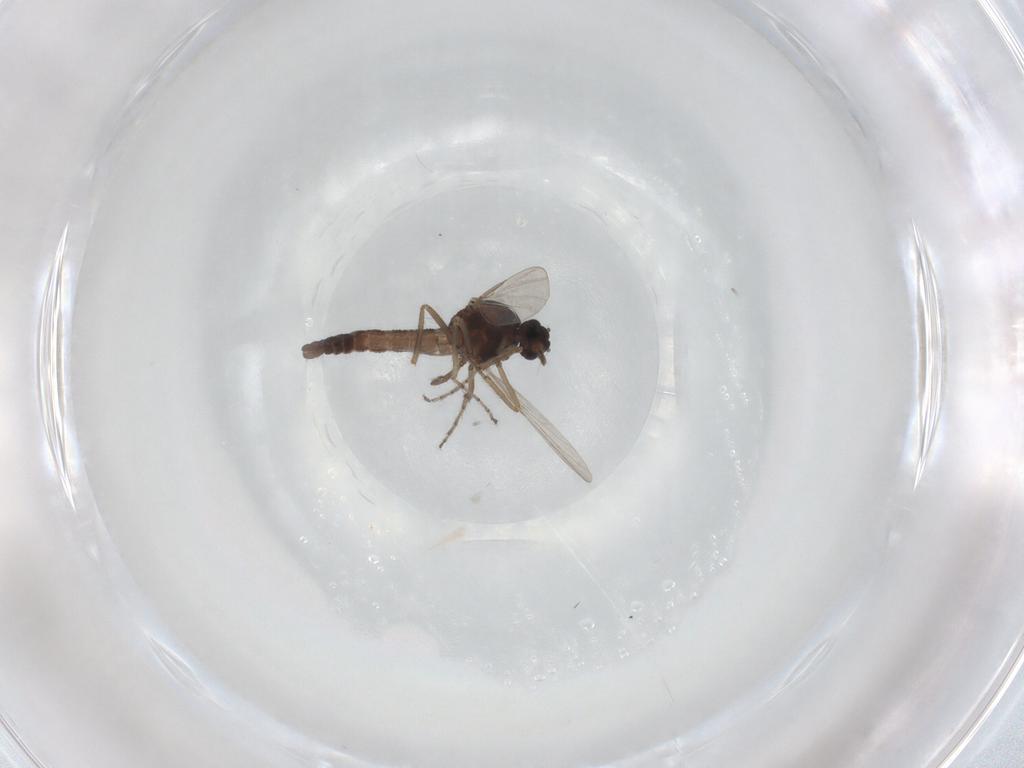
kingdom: Animalia
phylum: Arthropoda
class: Insecta
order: Diptera
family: Ceratopogonidae
